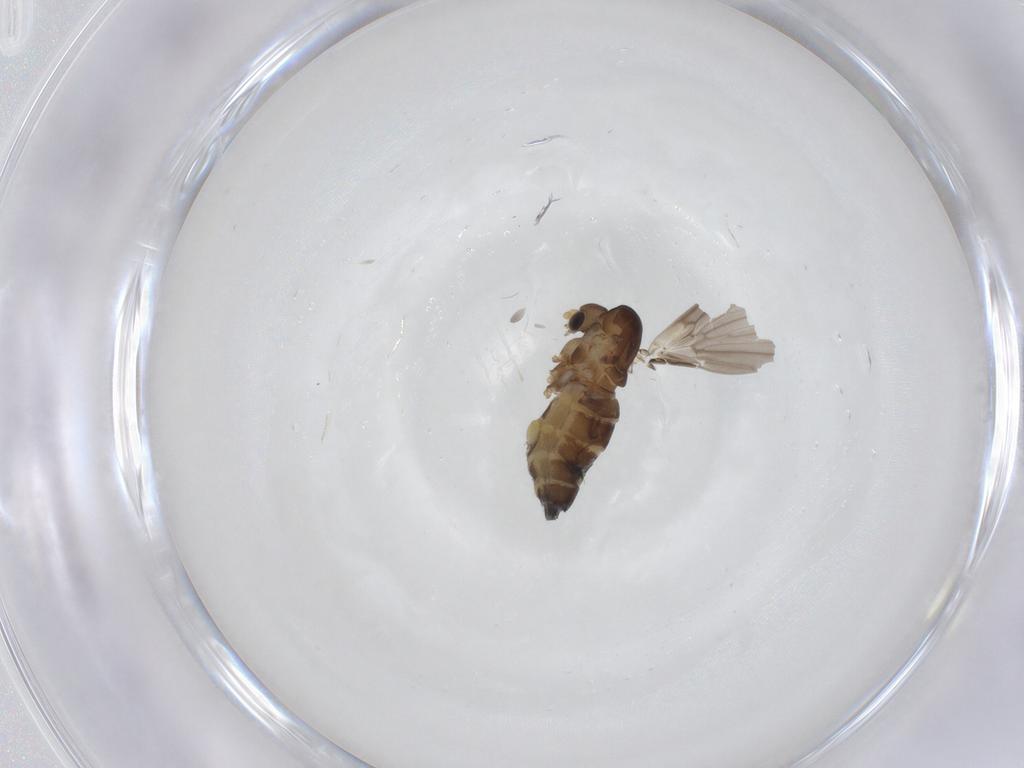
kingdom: Animalia
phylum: Arthropoda
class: Insecta
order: Diptera
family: Psychodidae
